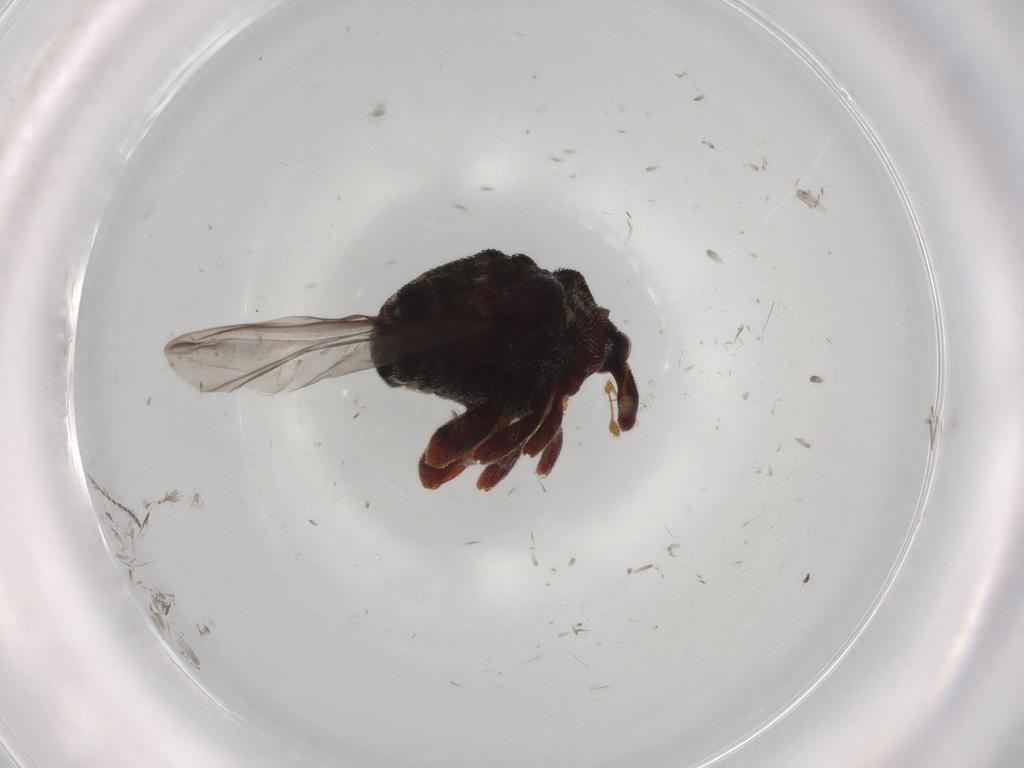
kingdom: Animalia
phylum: Arthropoda
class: Insecta
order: Coleoptera
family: Curculionidae
